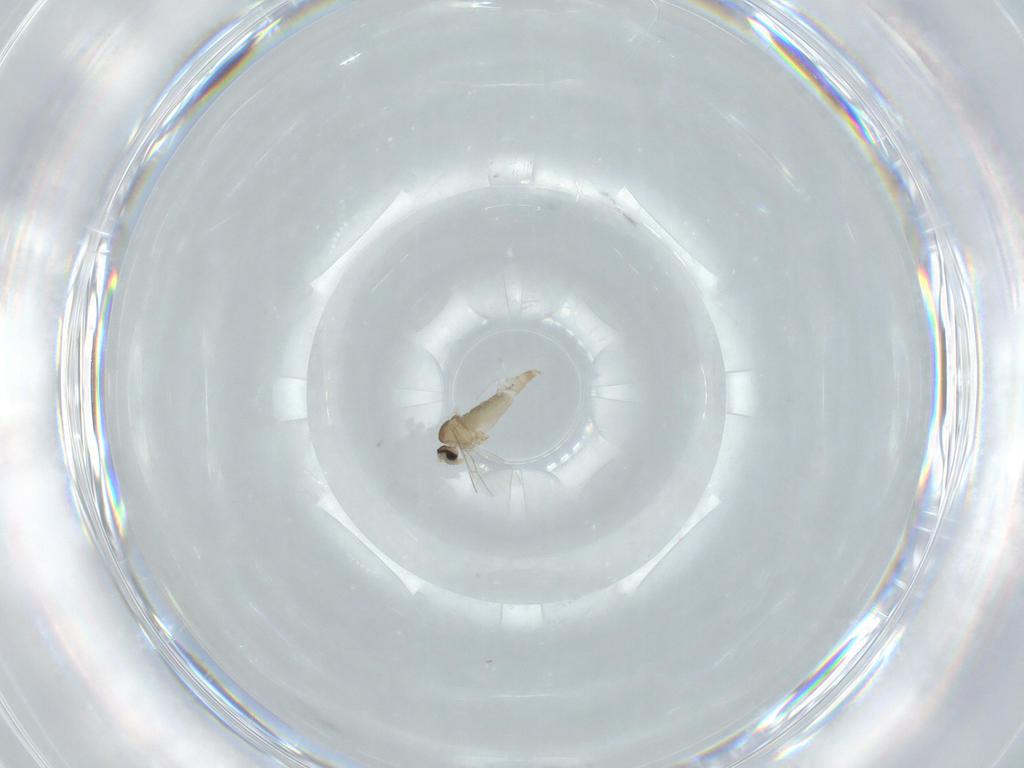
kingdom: Animalia
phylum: Arthropoda
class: Insecta
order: Diptera
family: Cecidomyiidae
